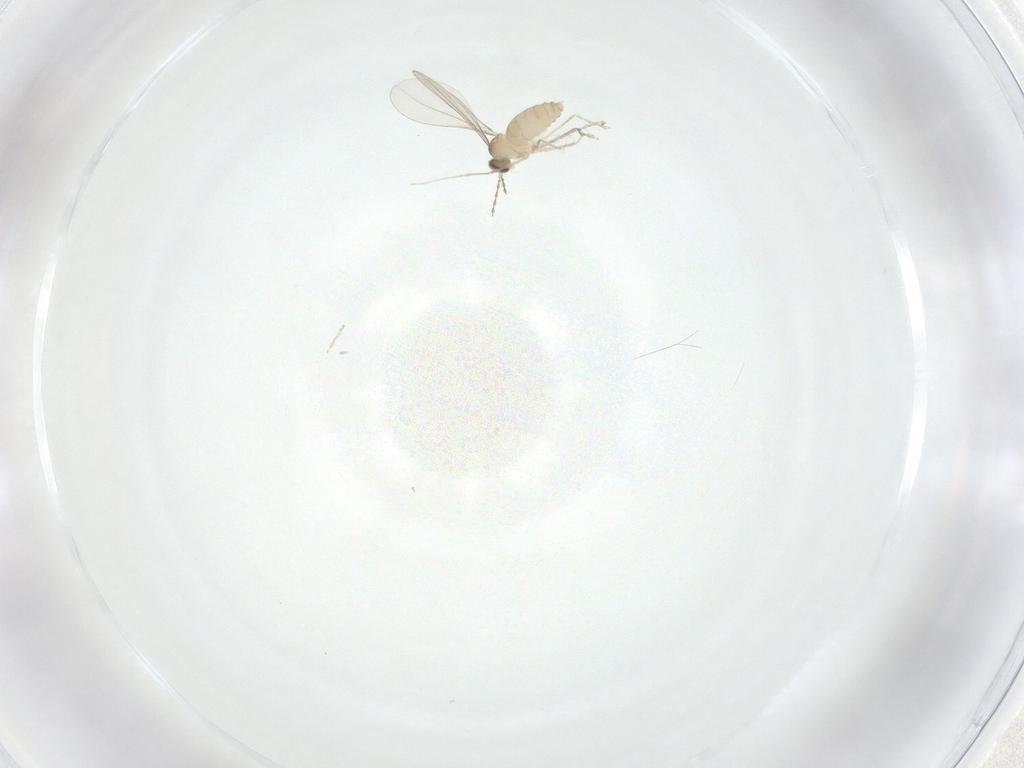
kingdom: Animalia
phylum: Arthropoda
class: Insecta
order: Diptera
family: Cecidomyiidae
